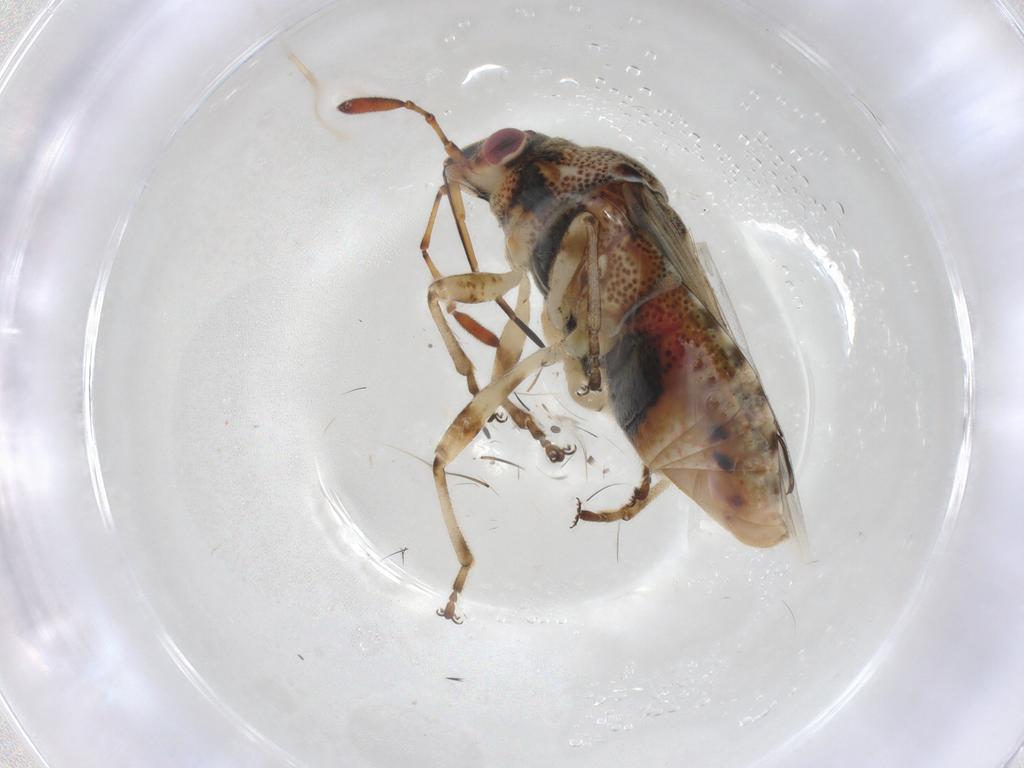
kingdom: Animalia
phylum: Arthropoda
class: Insecta
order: Hemiptera
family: Lygaeidae
